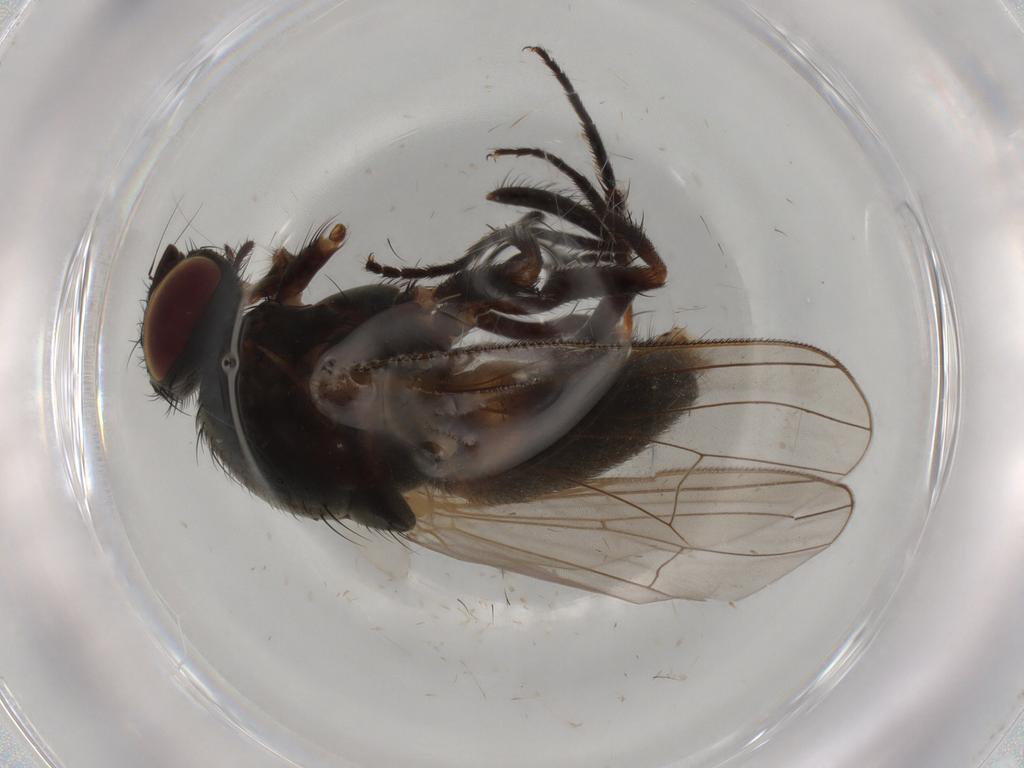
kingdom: Animalia
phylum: Arthropoda
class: Insecta
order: Diptera
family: Drosophilidae
